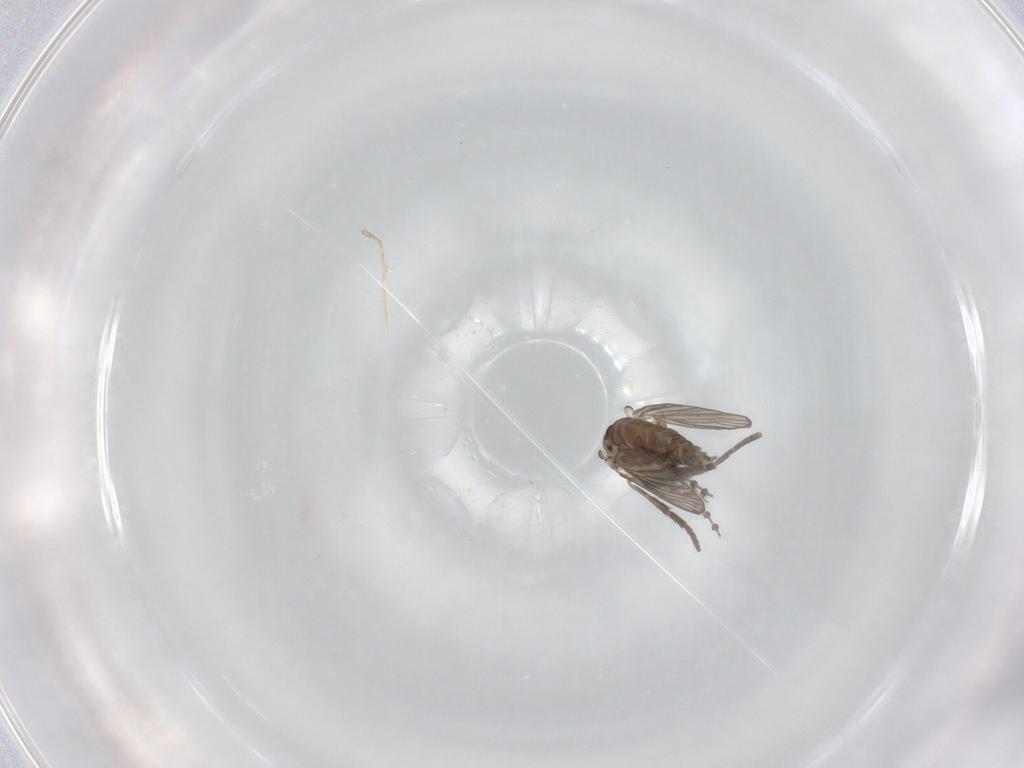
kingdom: Animalia
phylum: Arthropoda
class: Insecta
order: Diptera
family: Psychodidae
